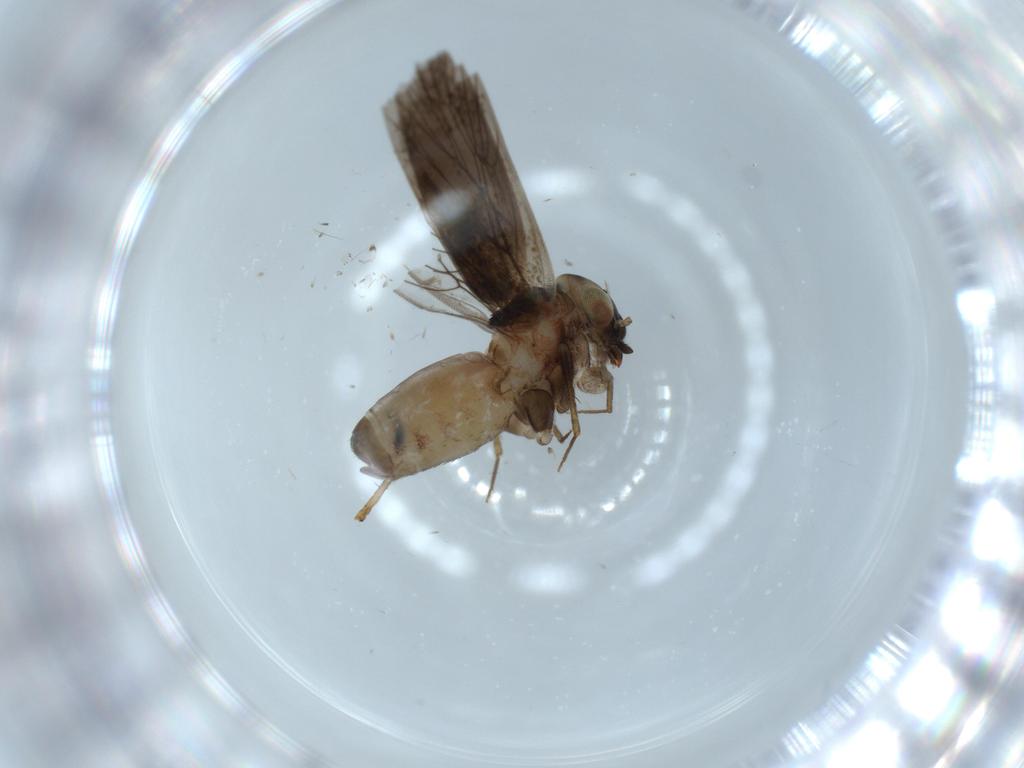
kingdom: Animalia
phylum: Arthropoda
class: Insecta
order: Psocodea
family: Lepidopsocidae
